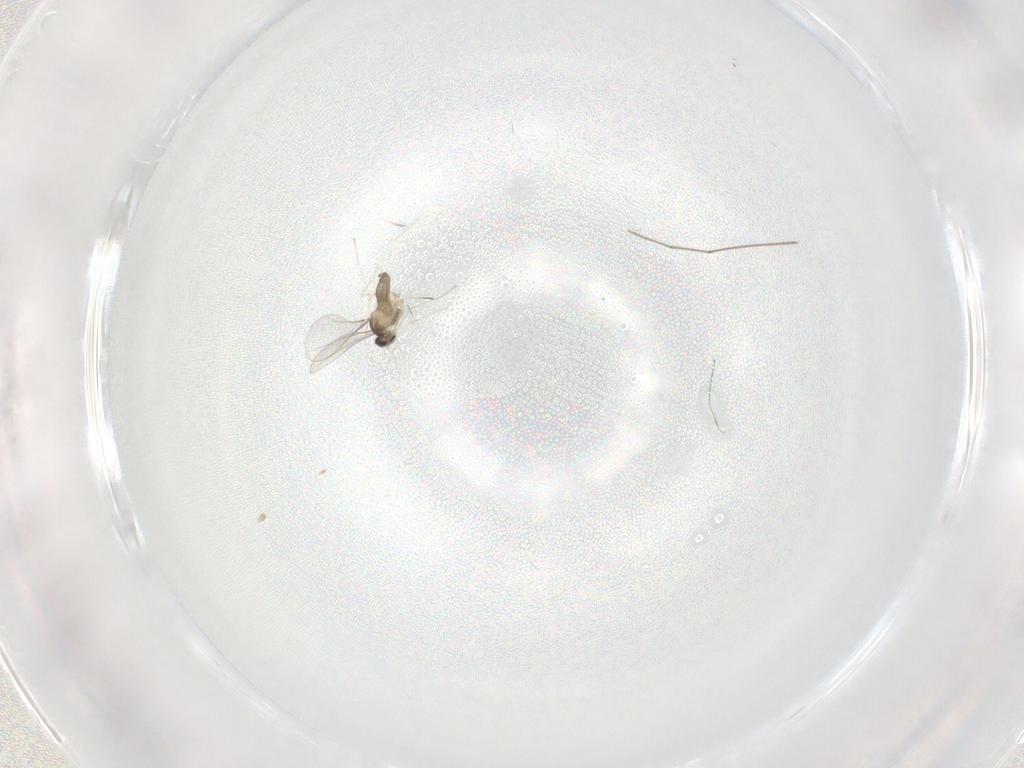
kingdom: Animalia
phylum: Arthropoda
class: Insecta
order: Diptera
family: Cecidomyiidae
